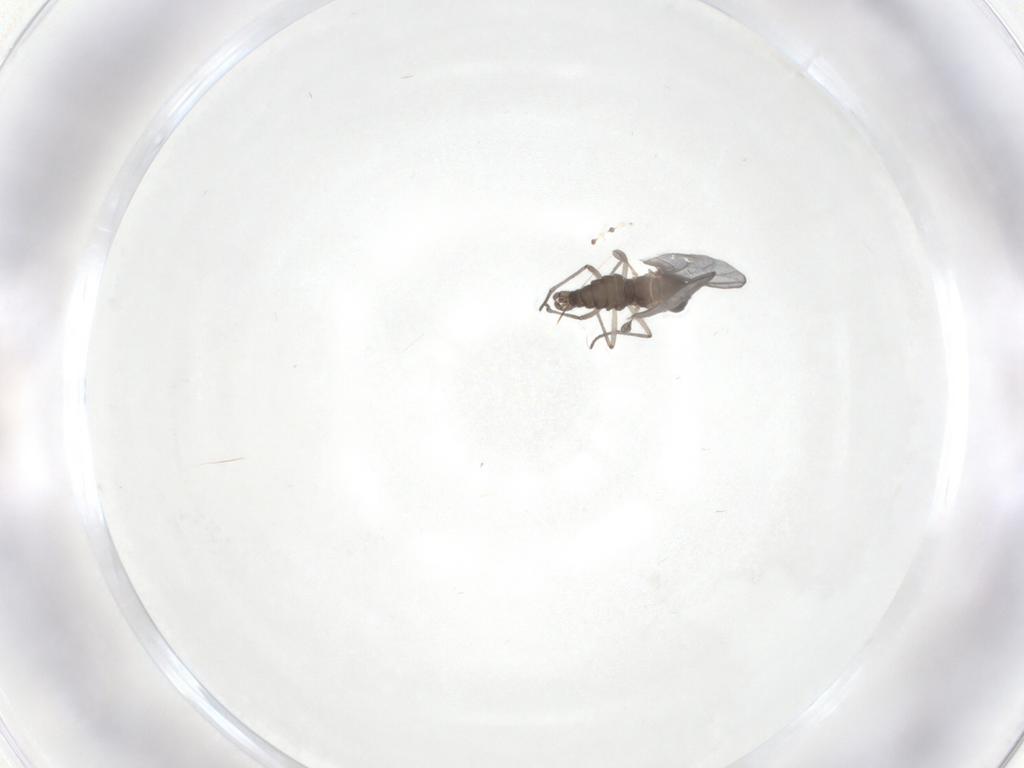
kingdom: Animalia
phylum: Arthropoda
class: Insecta
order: Diptera
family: Sciaridae
